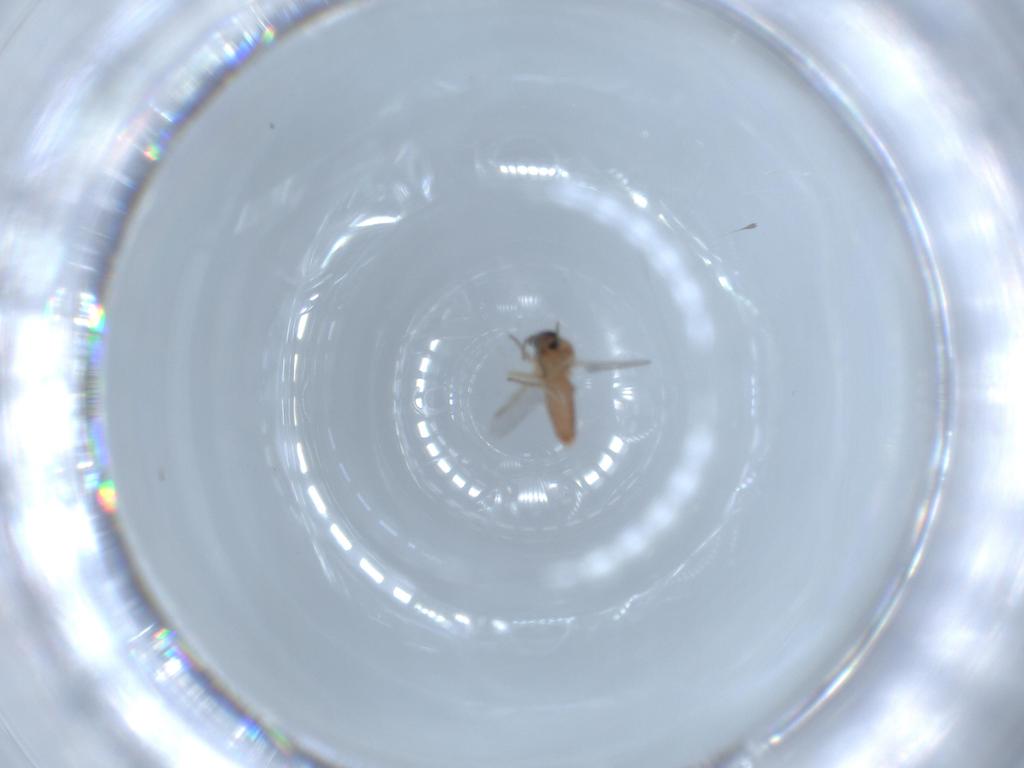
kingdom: Animalia
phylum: Arthropoda
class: Insecta
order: Diptera
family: Ceratopogonidae
